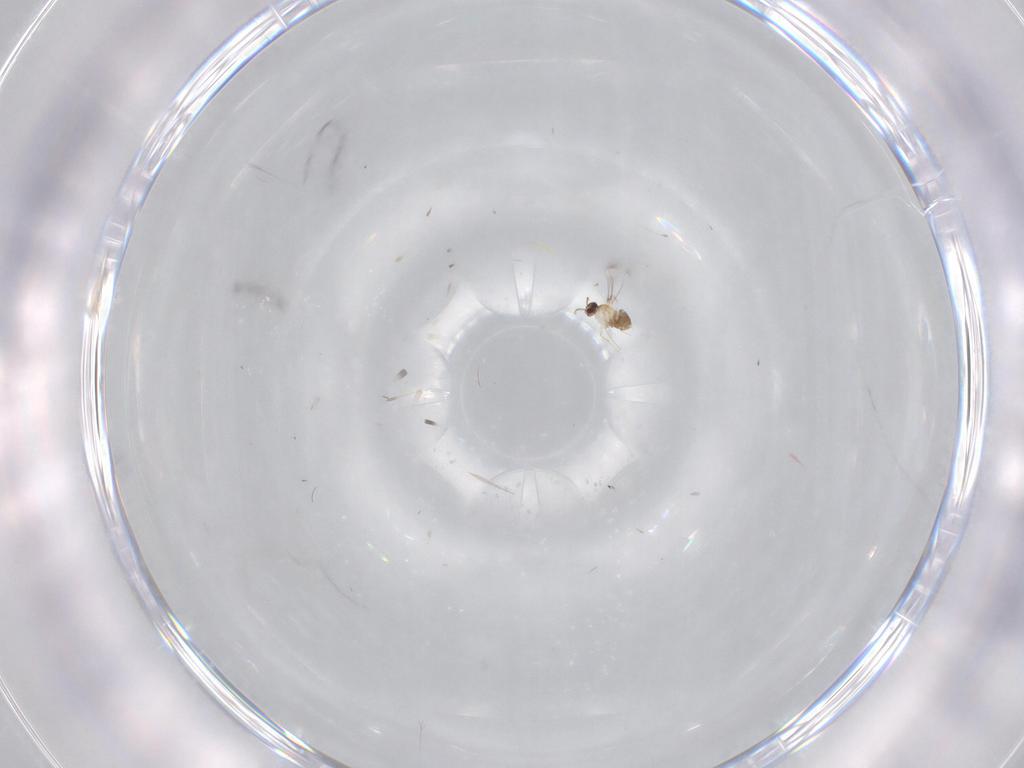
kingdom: Animalia
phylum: Arthropoda
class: Insecta
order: Hymenoptera
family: Mymaridae
